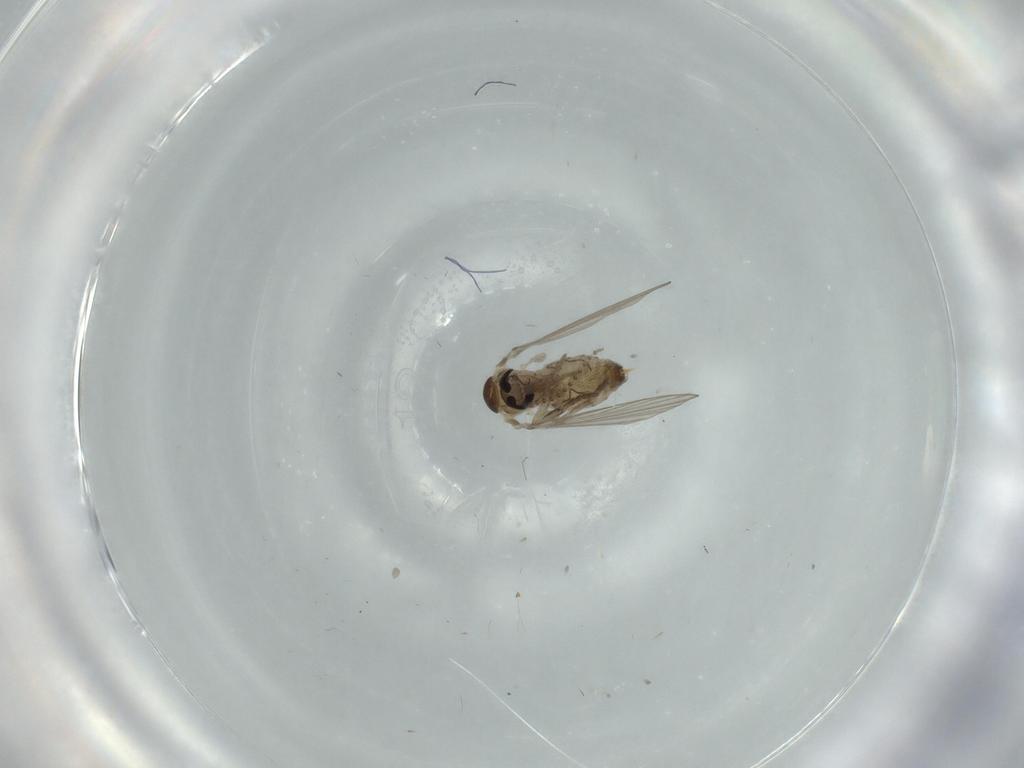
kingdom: Animalia
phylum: Arthropoda
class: Insecta
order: Diptera
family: Psychodidae
